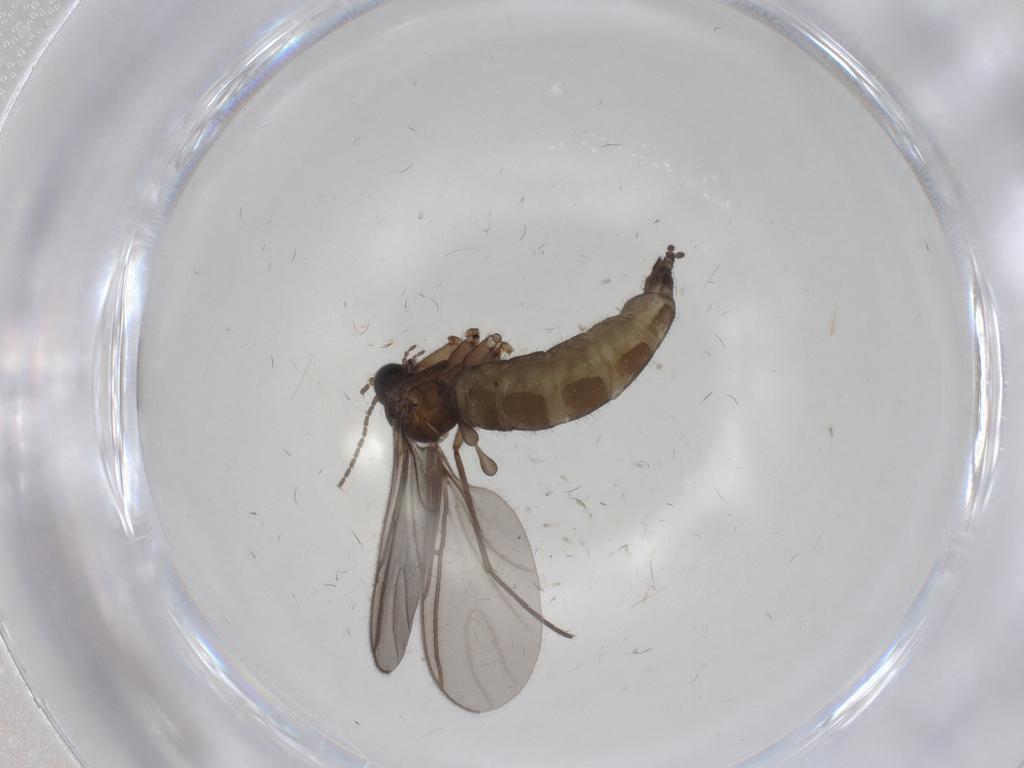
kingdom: Animalia
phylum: Arthropoda
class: Insecta
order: Diptera
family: Sciaridae
